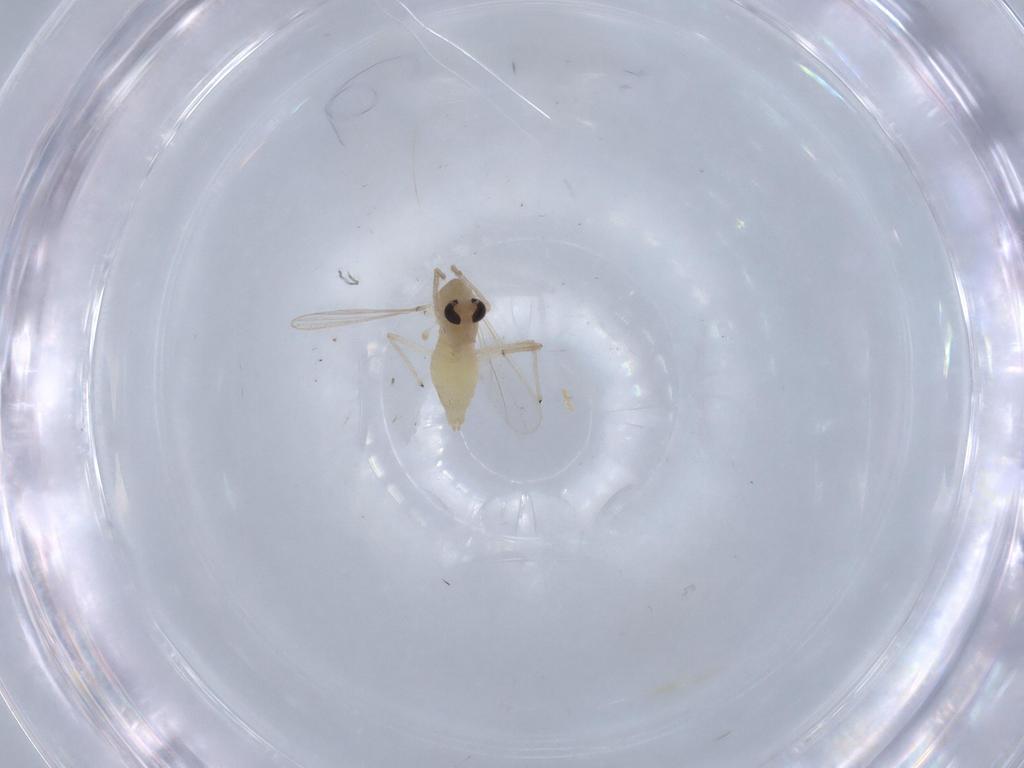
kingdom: Animalia
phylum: Arthropoda
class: Insecta
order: Diptera
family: Chironomidae
